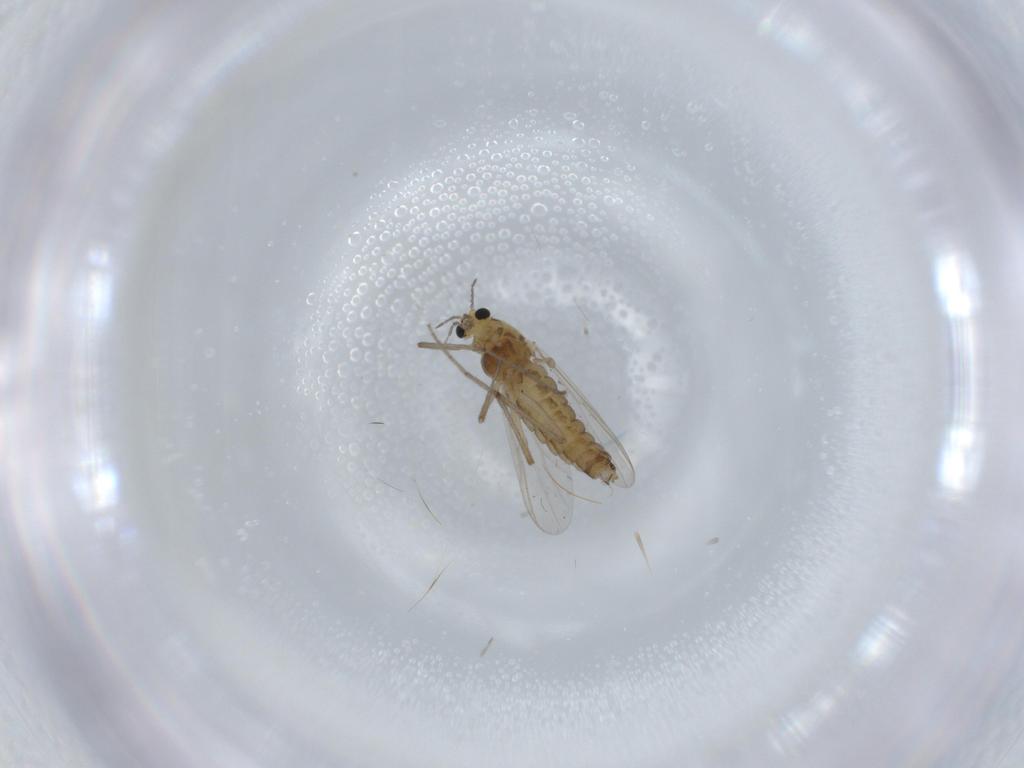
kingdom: Animalia
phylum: Arthropoda
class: Insecta
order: Diptera
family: Chironomidae
